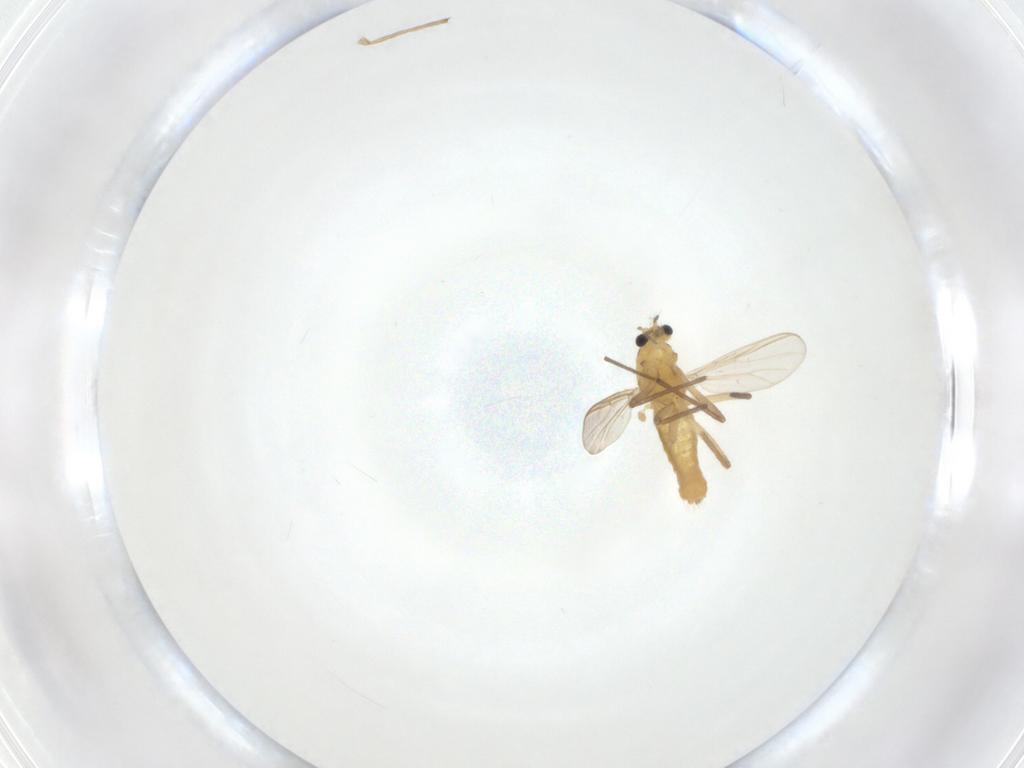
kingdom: Animalia
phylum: Arthropoda
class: Insecta
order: Diptera
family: Chironomidae
